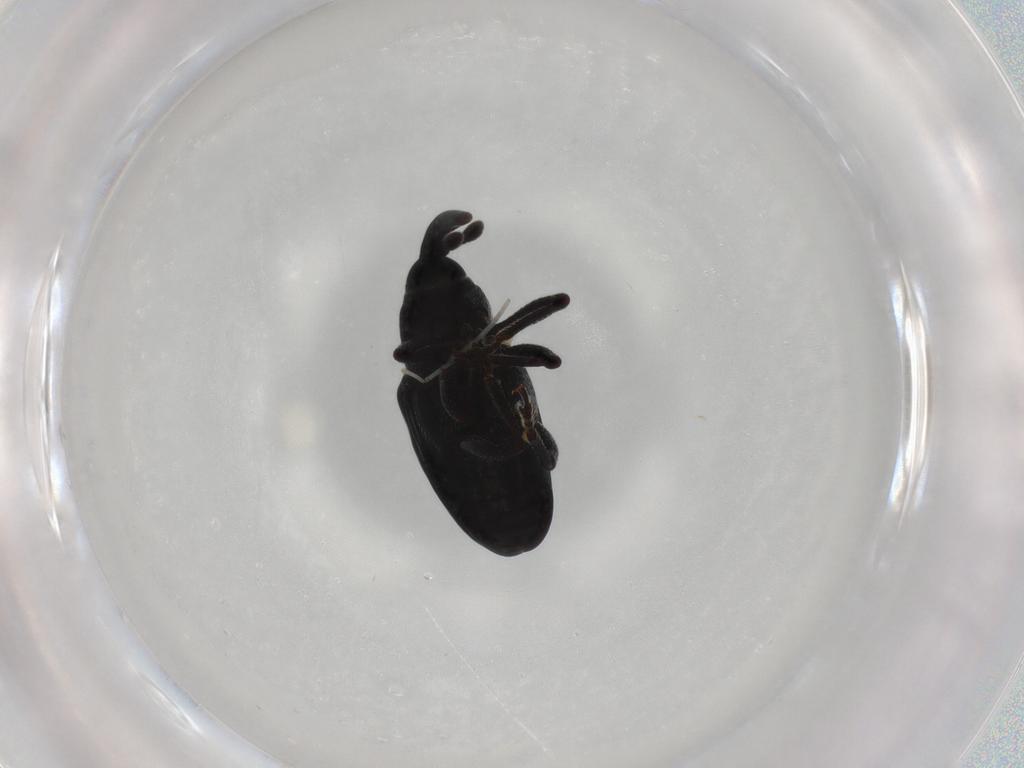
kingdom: Animalia
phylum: Arthropoda
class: Insecta
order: Coleoptera
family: Curculionidae
